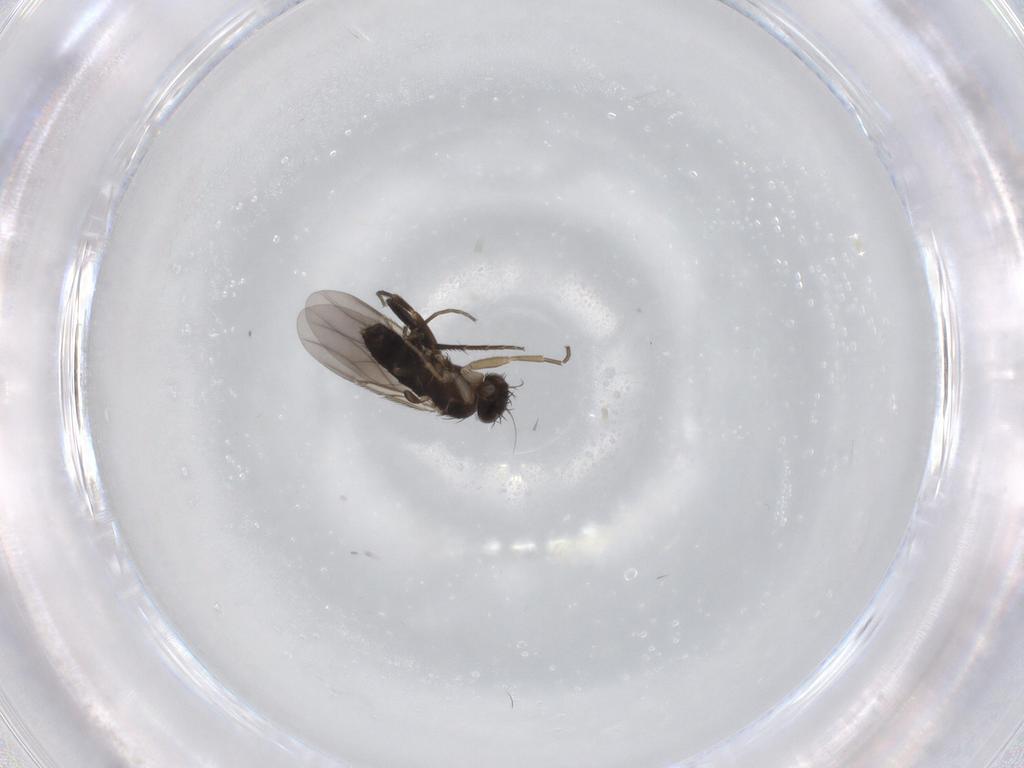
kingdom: Animalia
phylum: Arthropoda
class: Insecta
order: Diptera
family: Phoridae
